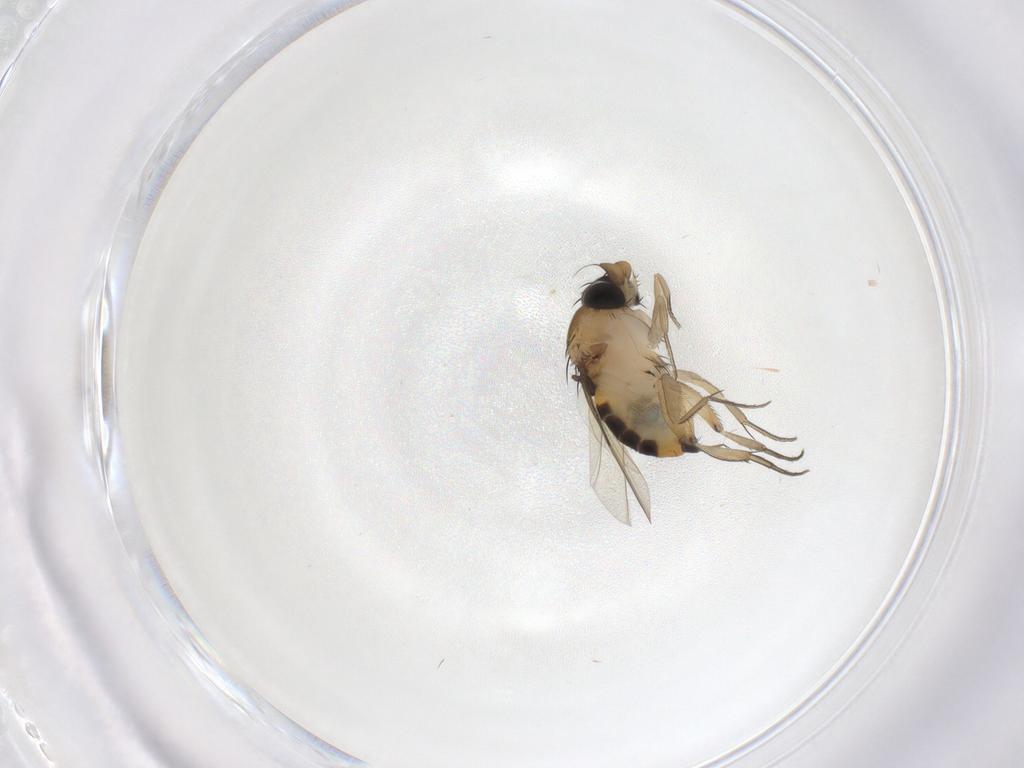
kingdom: Animalia
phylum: Arthropoda
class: Insecta
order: Diptera
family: Phoridae
